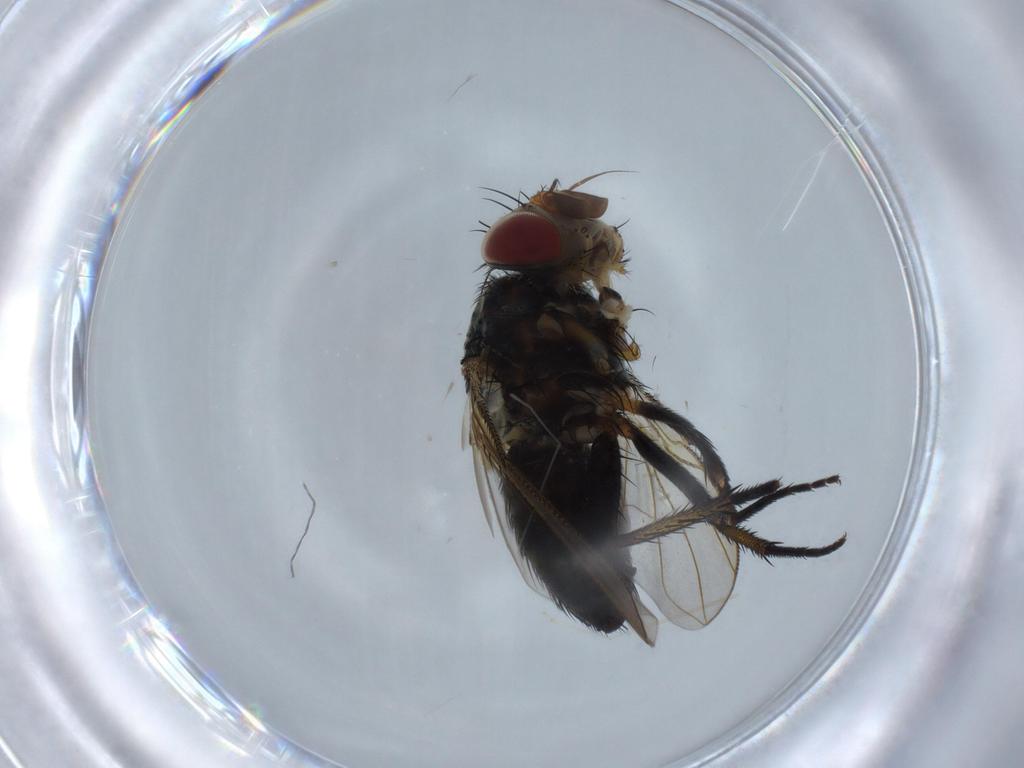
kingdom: Animalia
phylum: Arthropoda
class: Insecta
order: Diptera
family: Chironomidae
